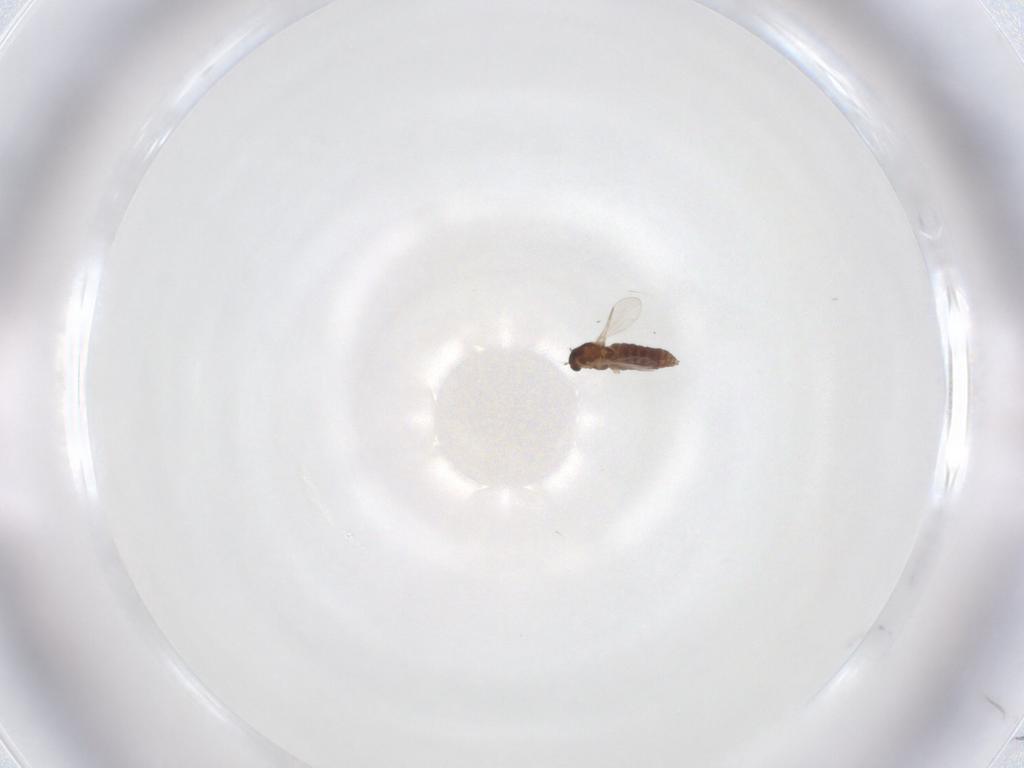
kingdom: Animalia
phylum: Arthropoda
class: Insecta
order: Diptera
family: Chironomidae
